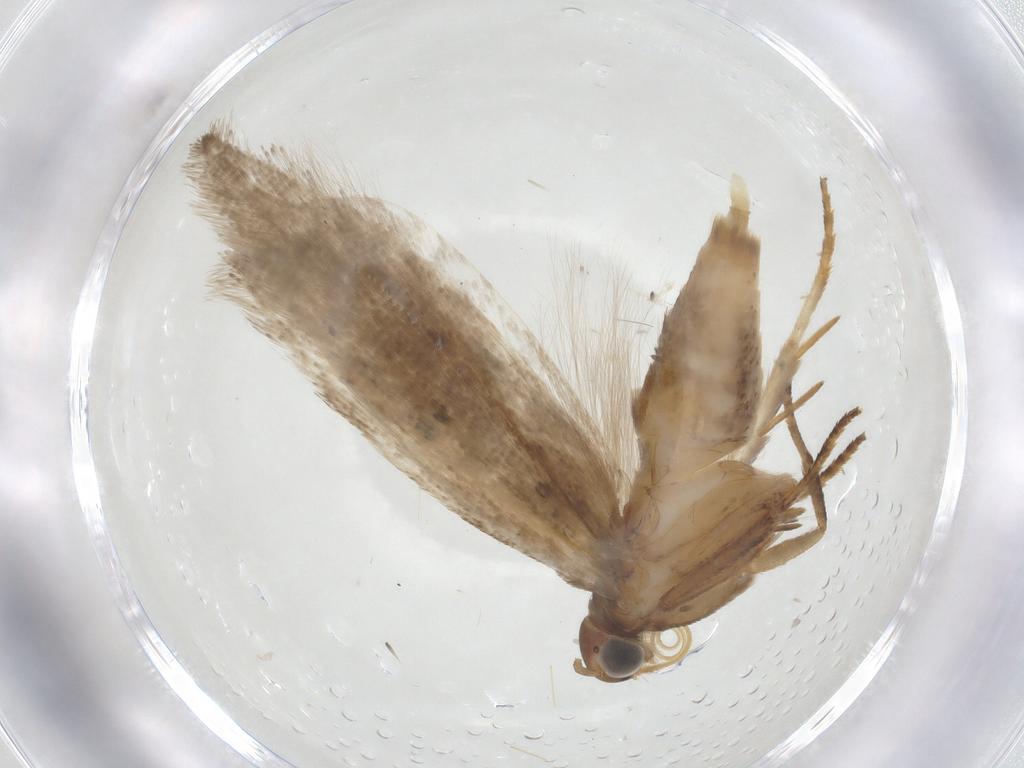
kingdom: Animalia
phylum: Arthropoda
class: Insecta
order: Lepidoptera
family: Gelechiidae
